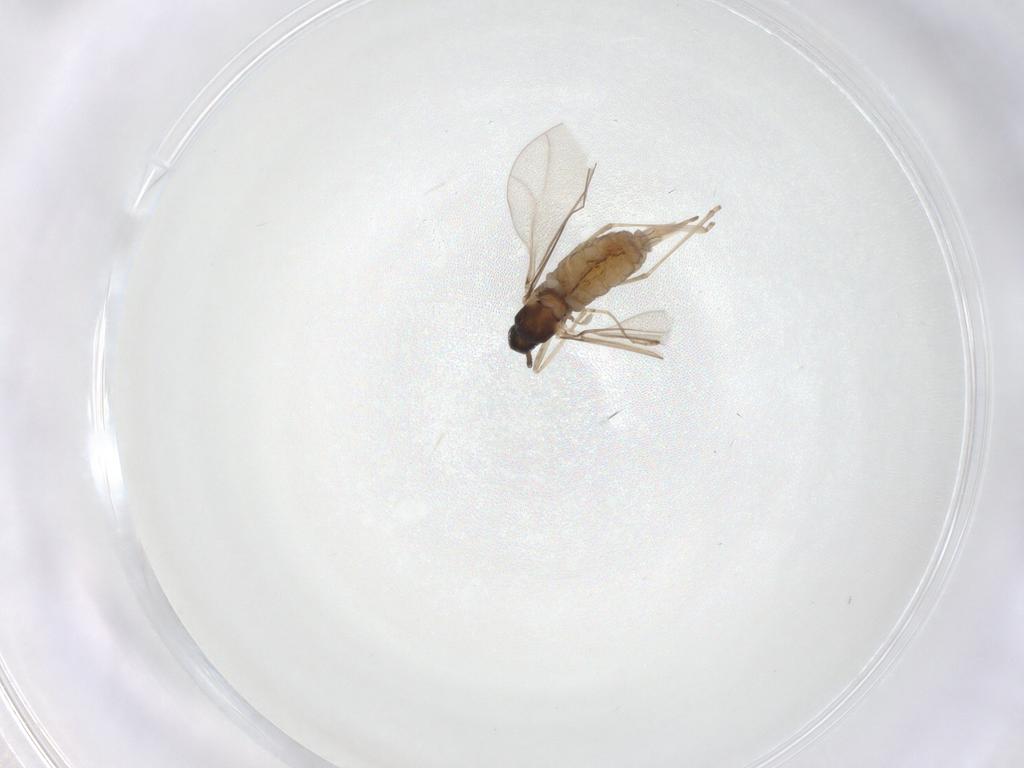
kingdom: Animalia
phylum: Arthropoda
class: Insecta
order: Diptera
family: Cecidomyiidae
